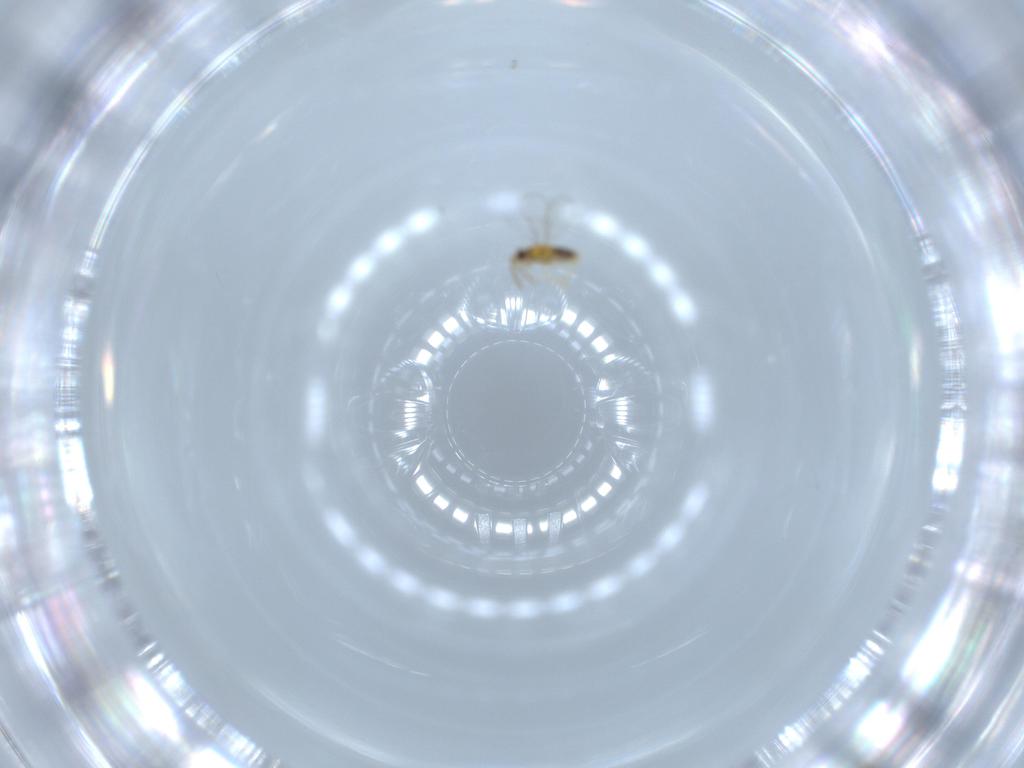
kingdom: Animalia
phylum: Arthropoda
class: Insecta
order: Hymenoptera
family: Aphelinidae
